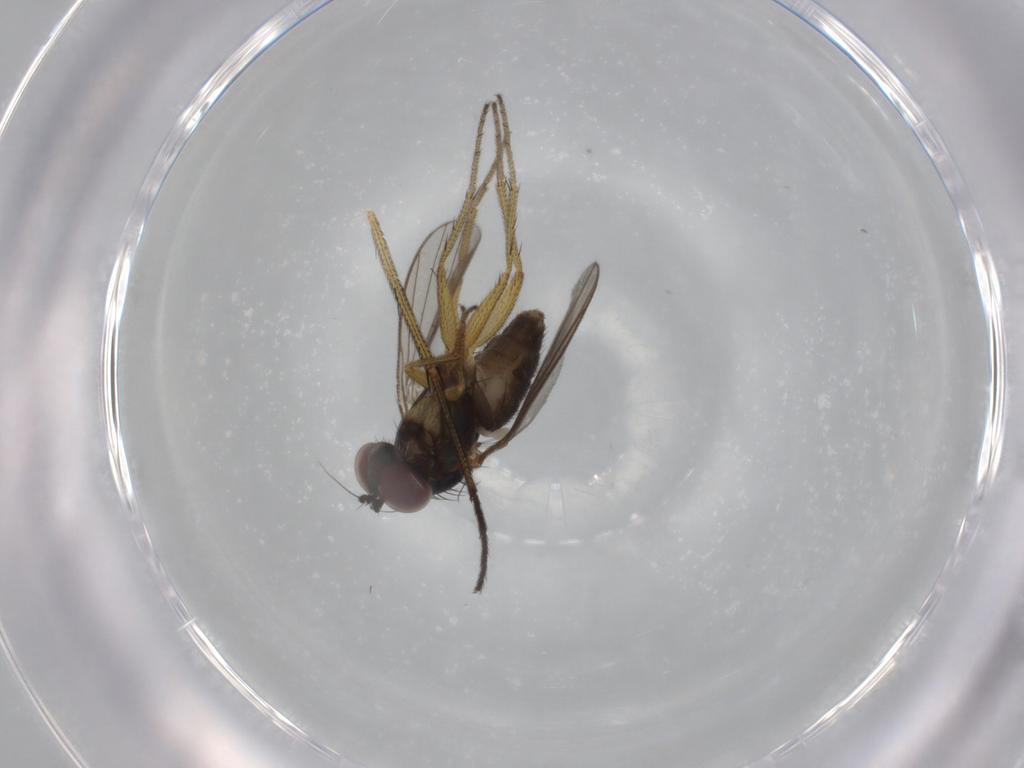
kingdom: Animalia
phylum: Arthropoda
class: Insecta
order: Diptera
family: Dolichopodidae
